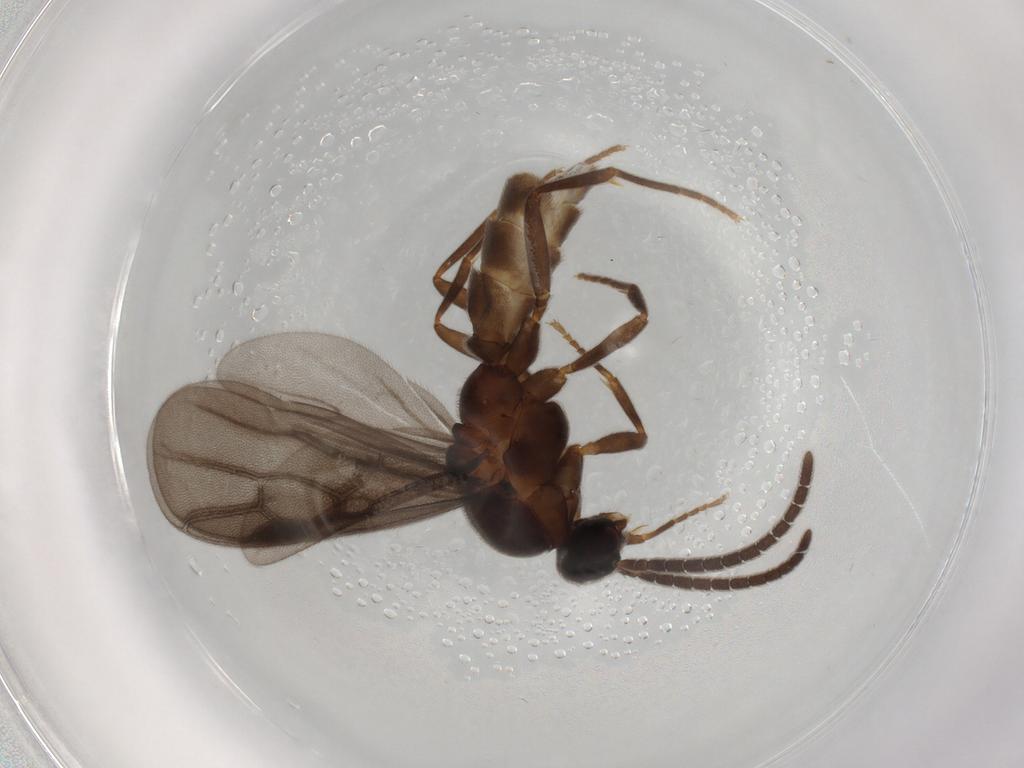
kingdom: Animalia
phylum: Arthropoda
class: Insecta
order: Hymenoptera
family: Formicidae
